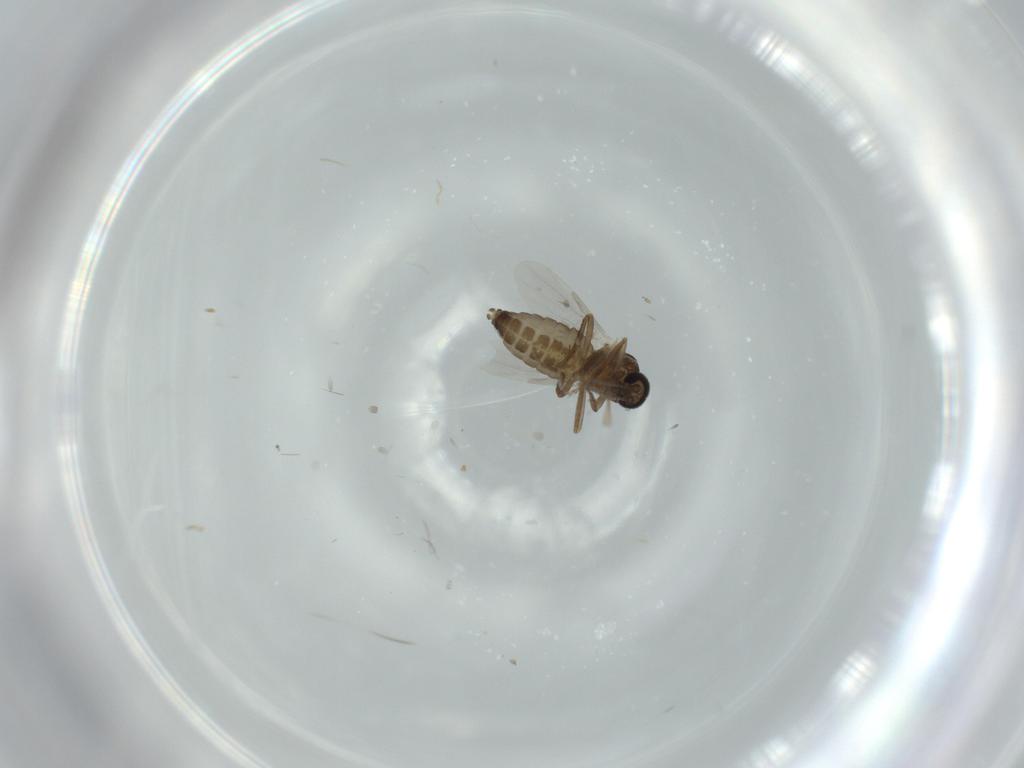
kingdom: Animalia
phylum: Arthropoda
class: Insecta
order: Diptera
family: Ceratopogonidae
